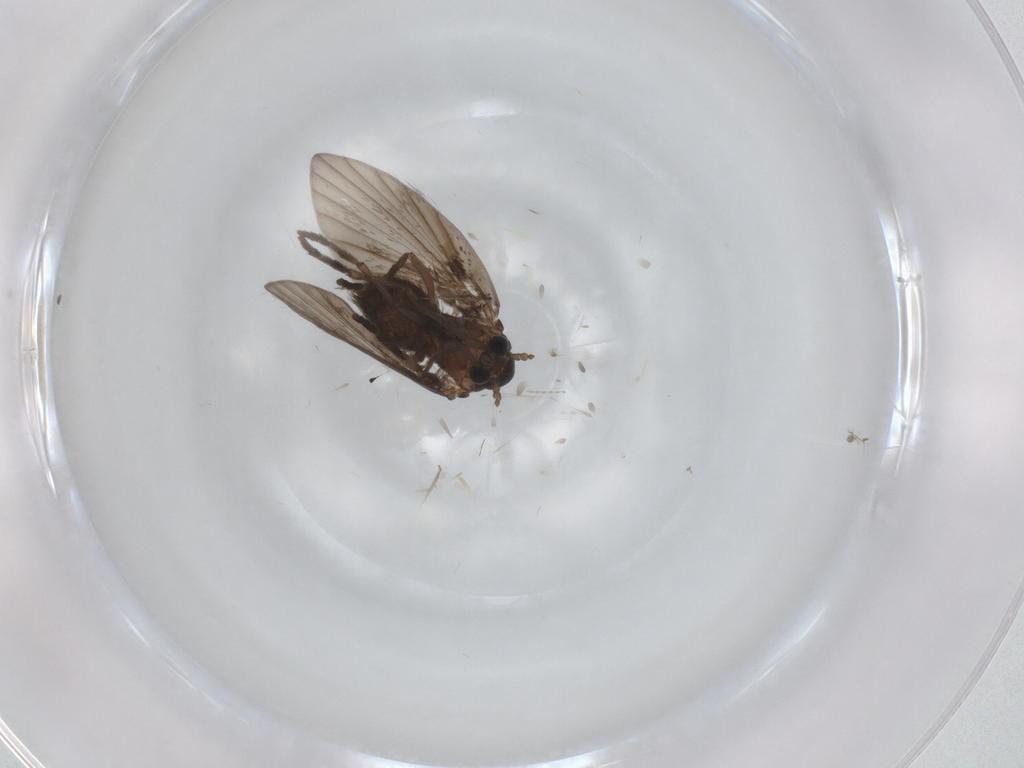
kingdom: Animalia
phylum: Arthropoda
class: Insecta
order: Diptera
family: Psychodidae
